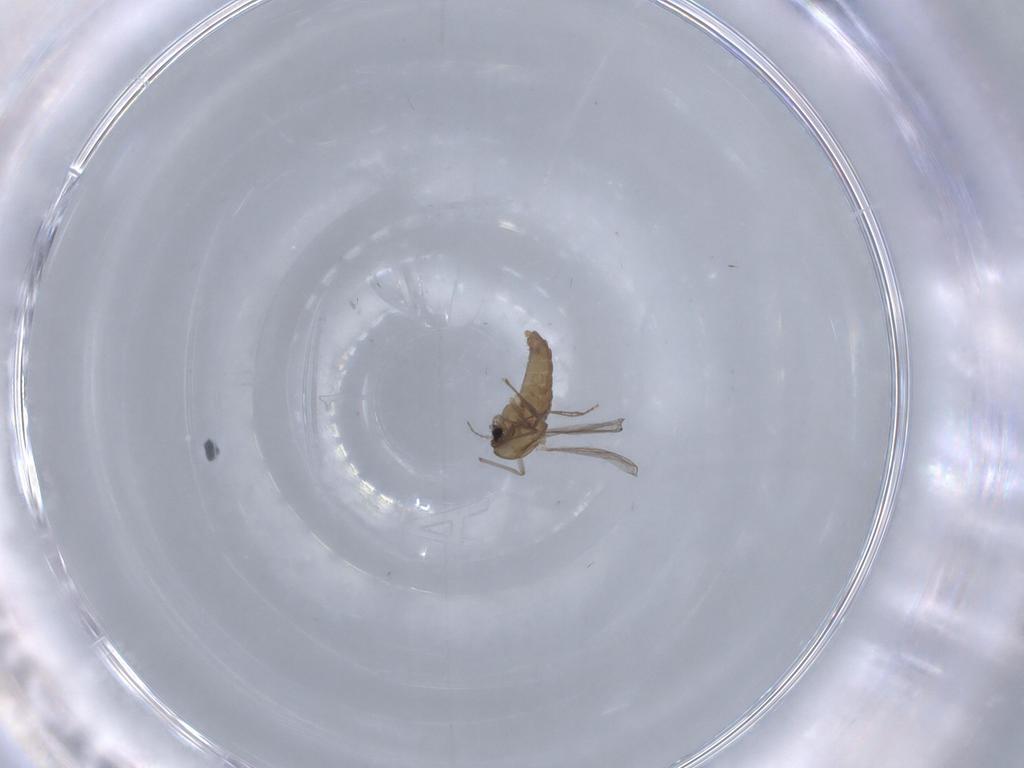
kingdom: Animalia
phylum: Arthropoda
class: Insecta
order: Diptera
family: Chironomidae
